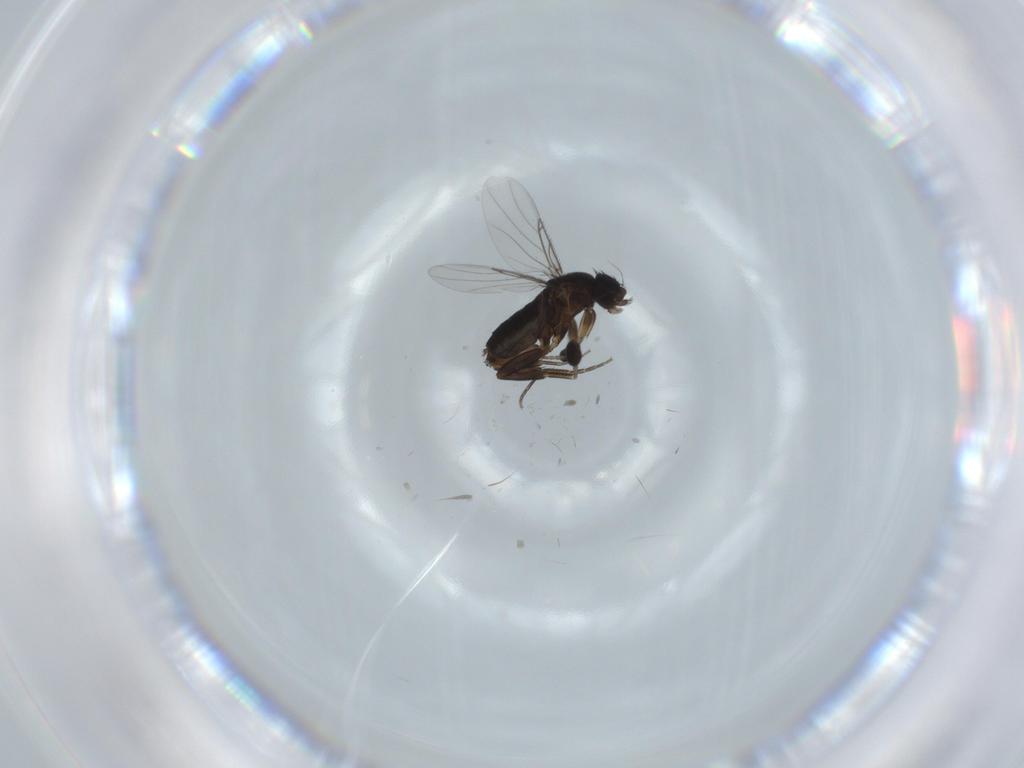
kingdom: Animalia
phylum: Arthropoda
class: Insecta
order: Diptera
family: Phoridae
